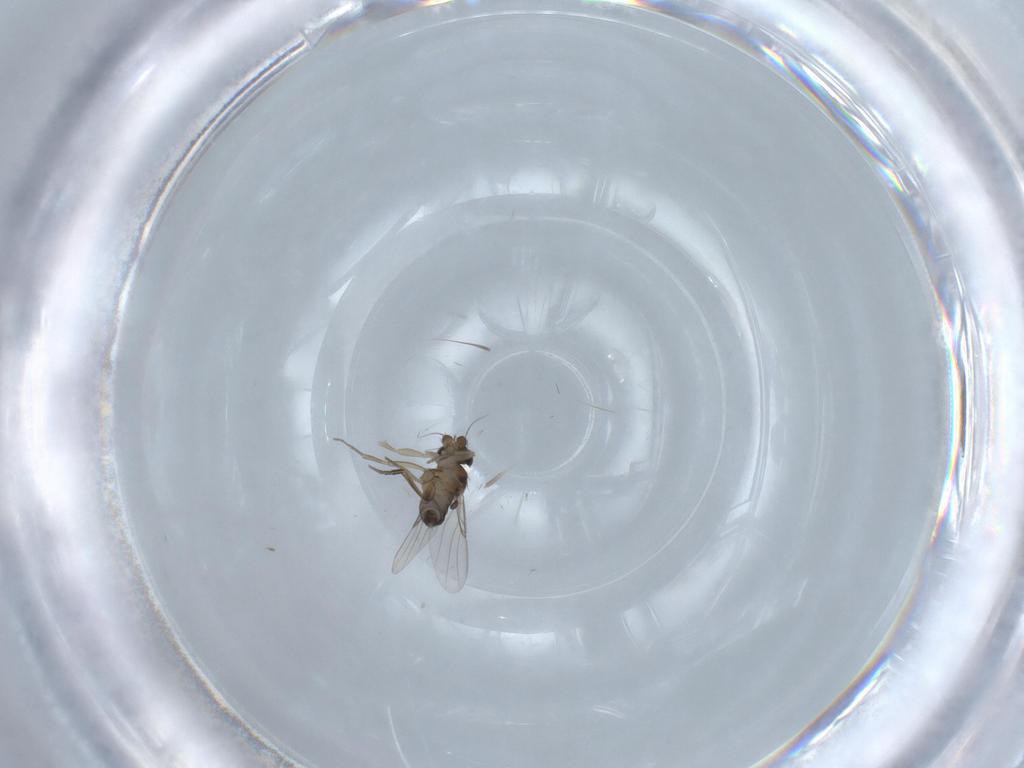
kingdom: Animalia
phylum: Arthropoda
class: Insecta
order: Diptera
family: Chironomidae
